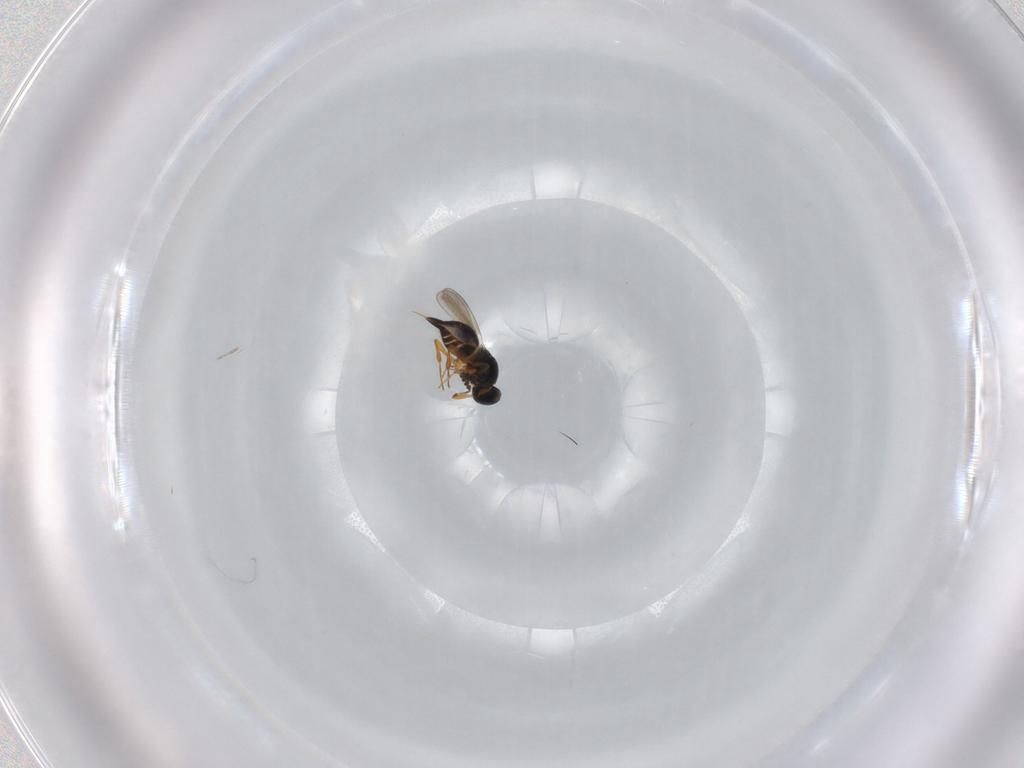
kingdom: Animalia
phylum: Arthropoda
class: Insecta
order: Hymenoptera
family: Platygastridae
